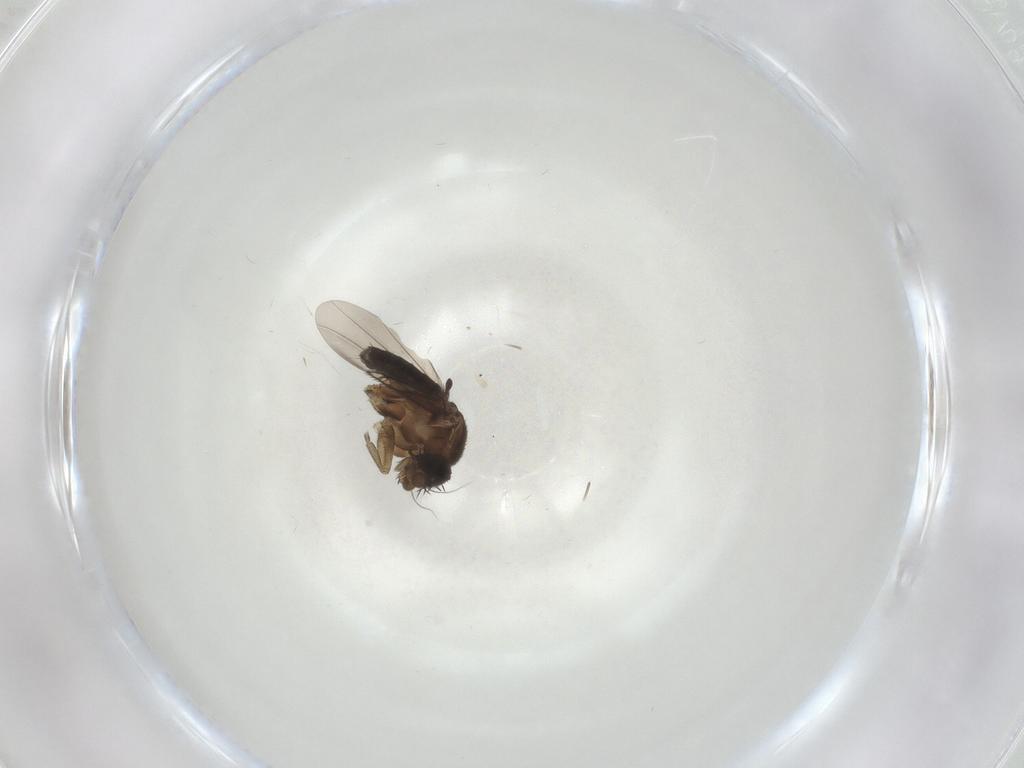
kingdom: Animalia
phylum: Arthropoda
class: Insecta
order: Diptera
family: Phoridae
